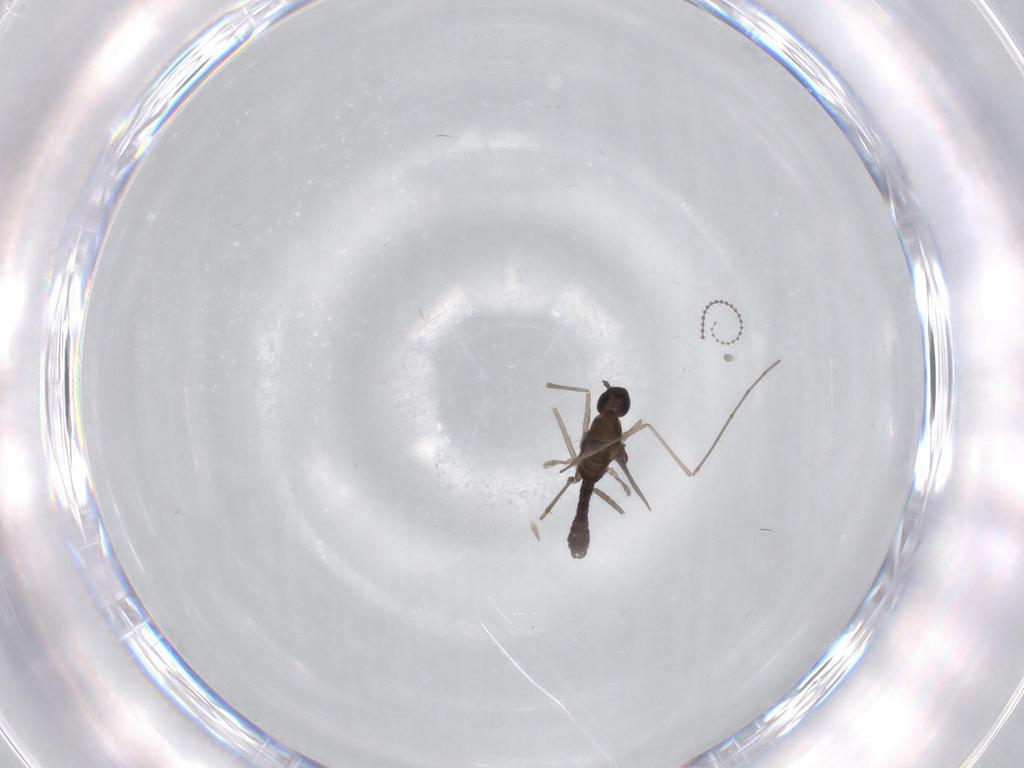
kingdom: Animalia
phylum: Arthropoda
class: Insecta
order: Diptera
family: Cecidomyiidae
